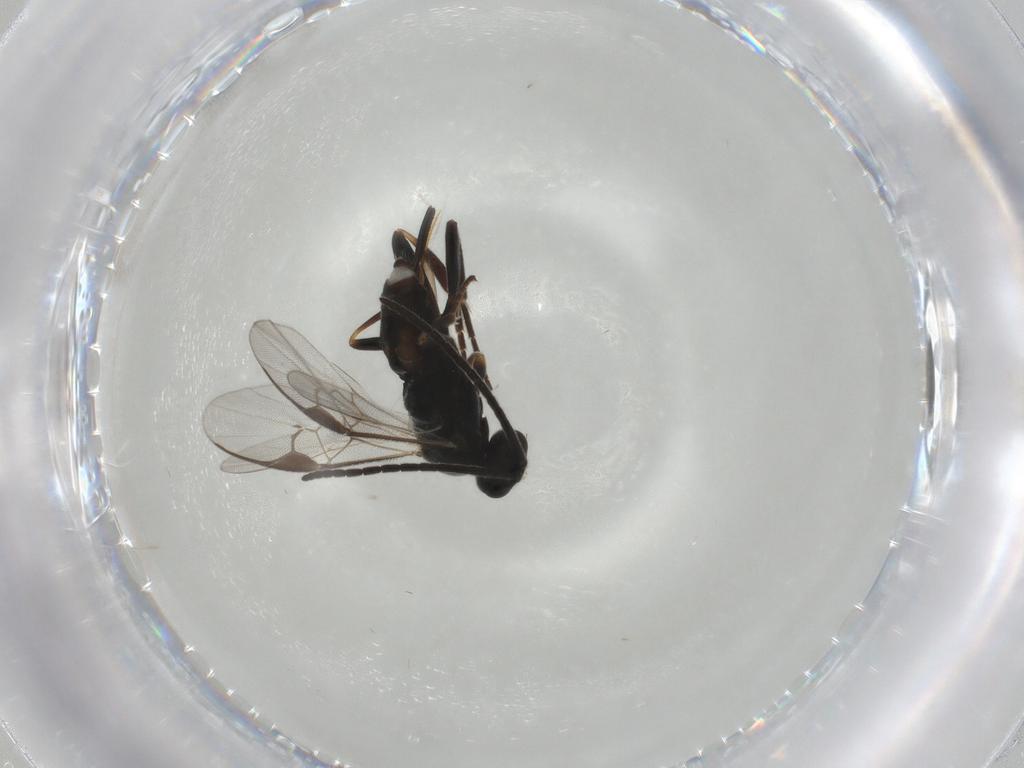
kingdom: Animalia
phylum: Arthropoda
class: Insecta
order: Hymenoptera
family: Braconidae
